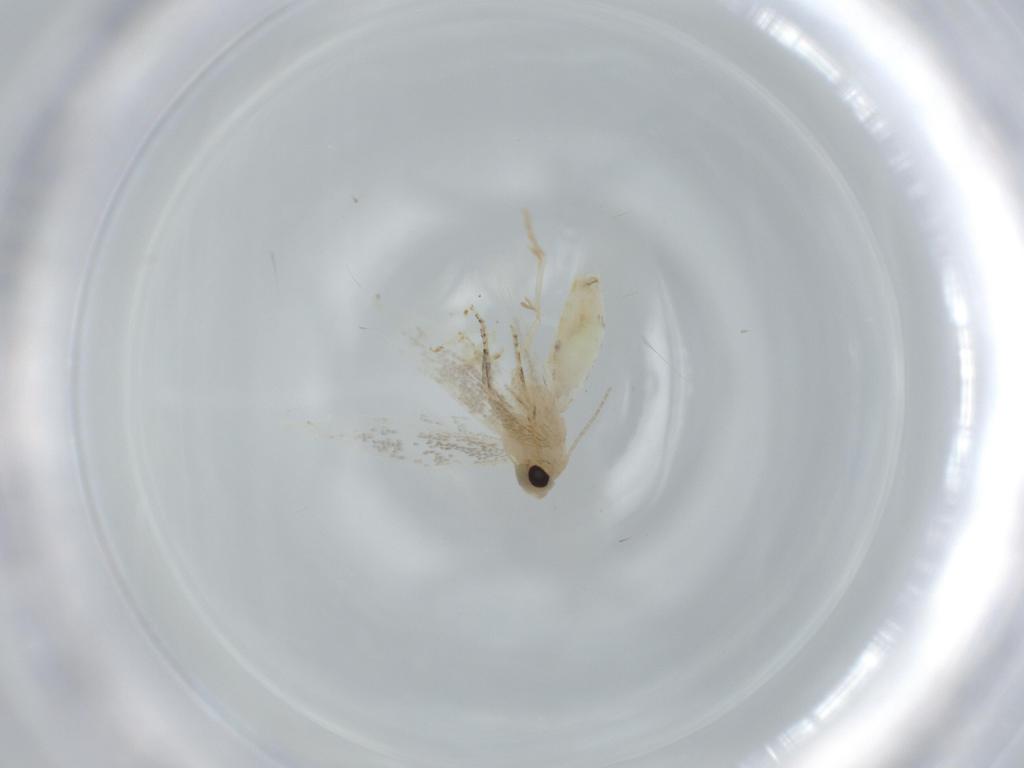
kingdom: Animalia
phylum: Arthropoda
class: Insecta
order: Lepidoptera
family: Bucculatricidae
